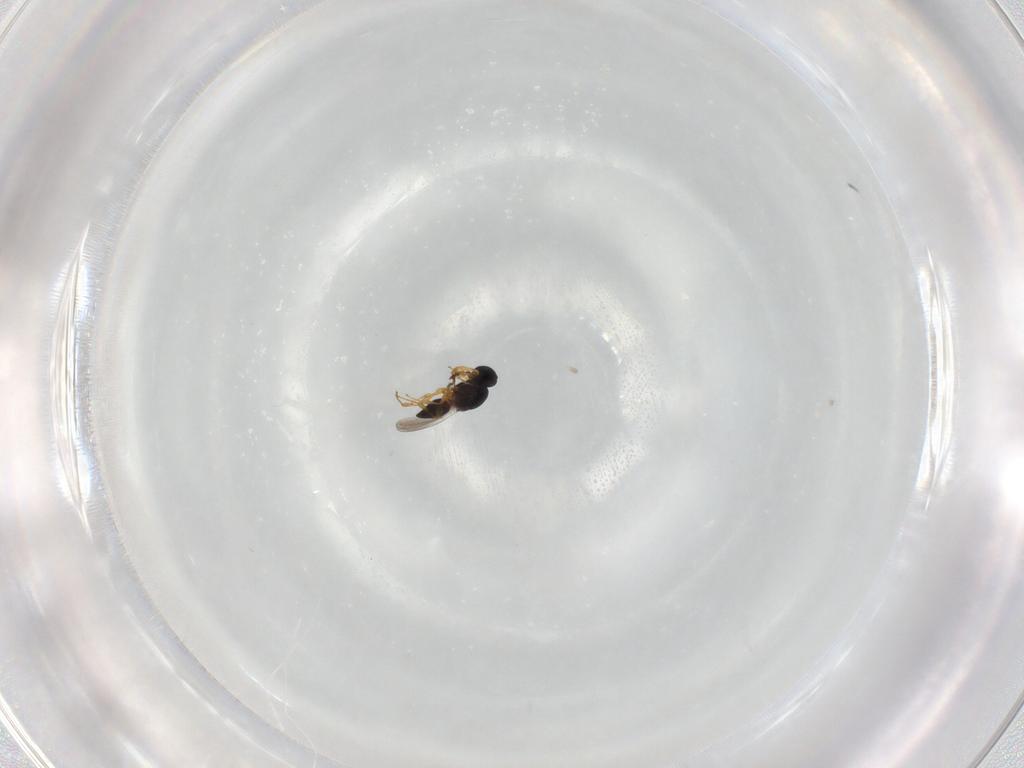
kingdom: Animalia
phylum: Arthropoda
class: Insecta
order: Hymenoptera
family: Platygastridae
